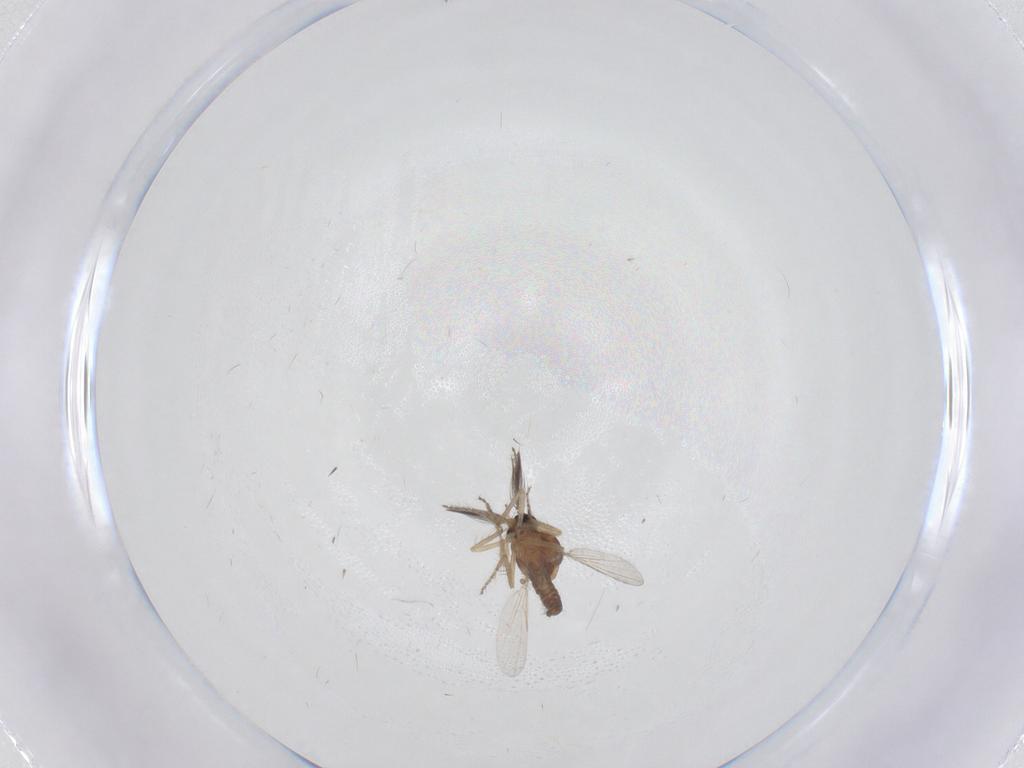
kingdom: Animalia
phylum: Arthropoda
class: Insecta
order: Diptera
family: Ceratopogonidae
